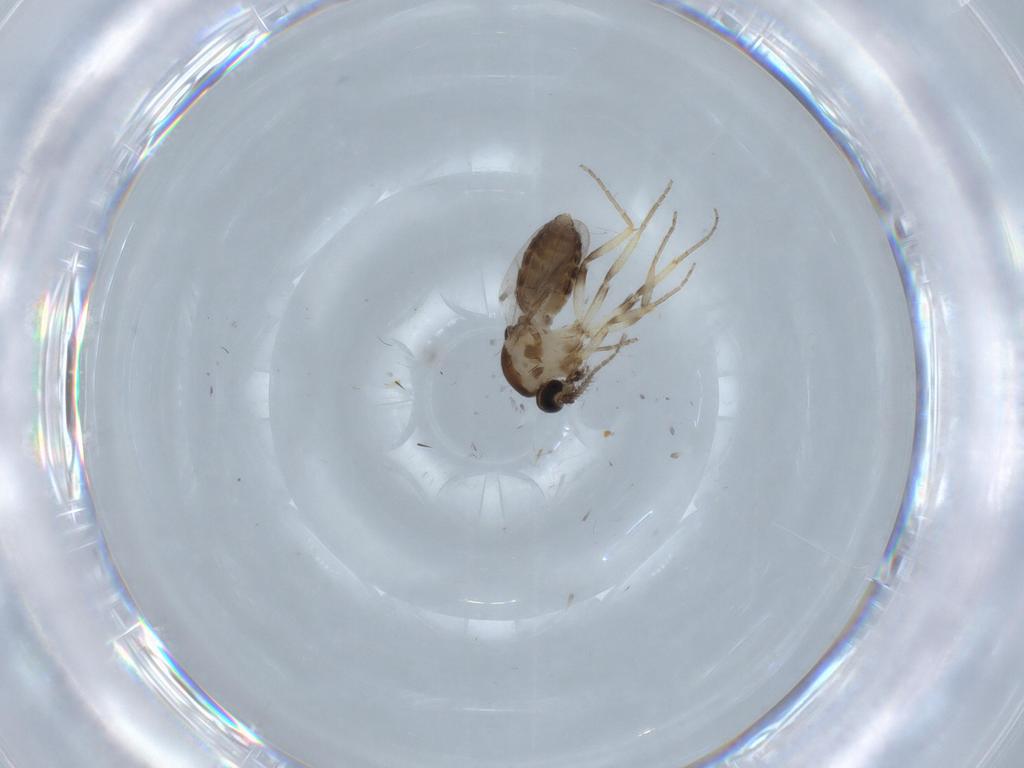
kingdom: Animalia
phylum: Arthropoda
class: Insecta
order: Diptera
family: Ceratopogonidae
